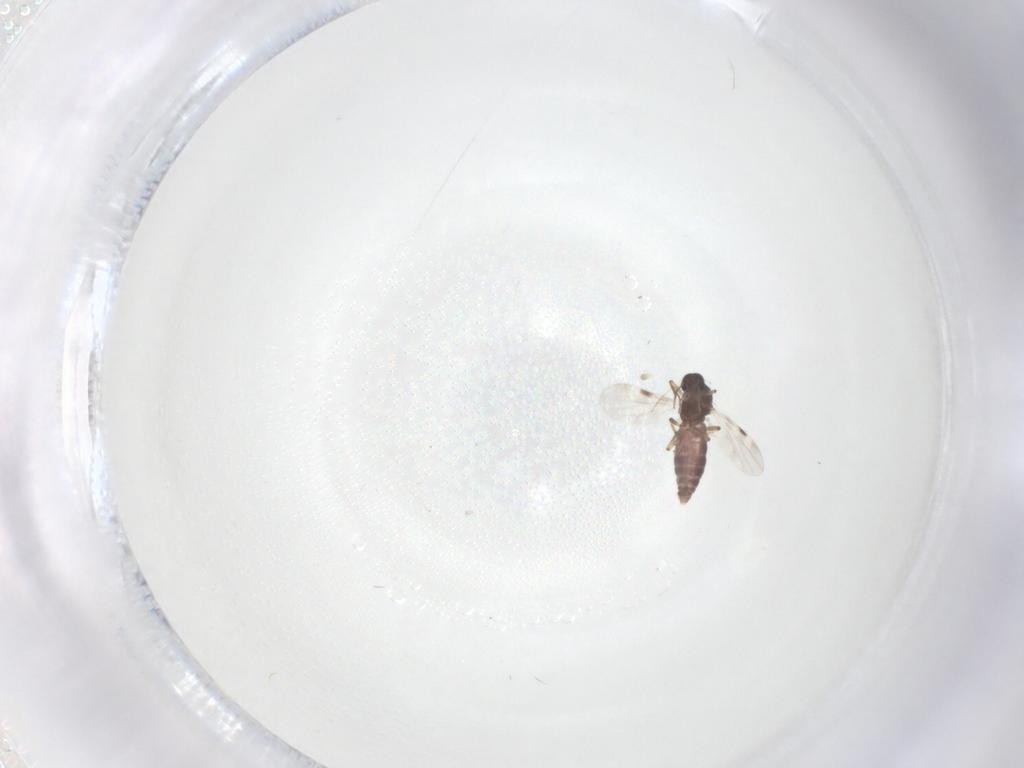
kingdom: Animalia
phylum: Arthropoda
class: Insecta
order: Diptera
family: Psychodidae
